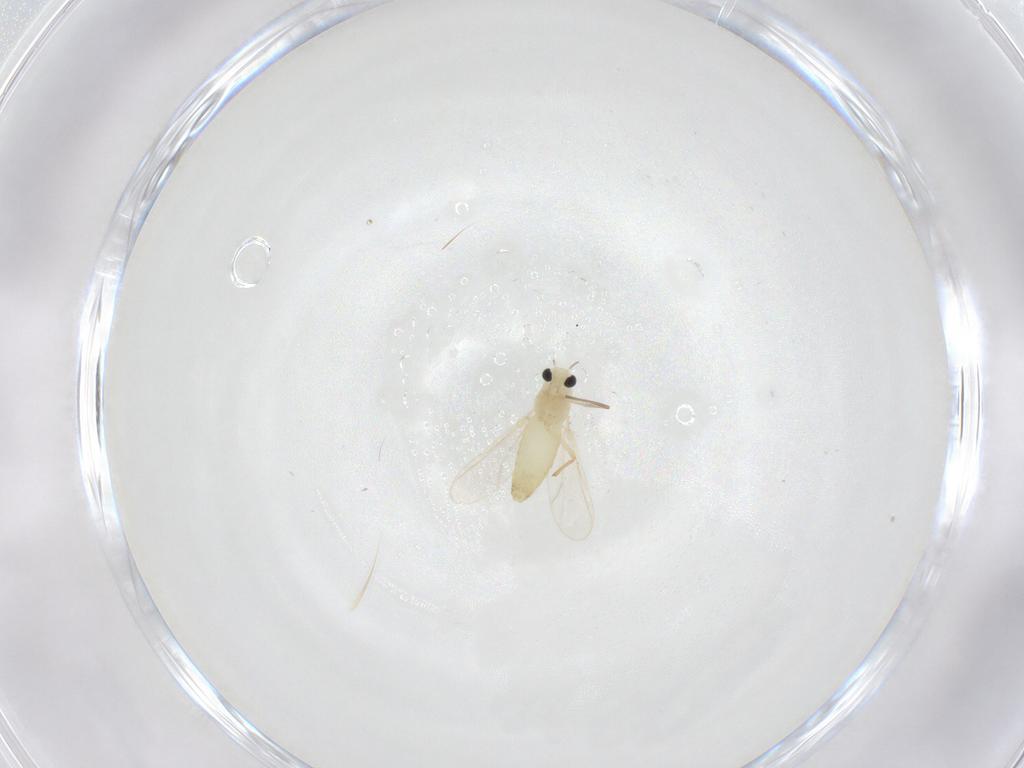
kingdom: Animalia
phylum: Arthropoda
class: Insecta
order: Diptera
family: Chironomidae
